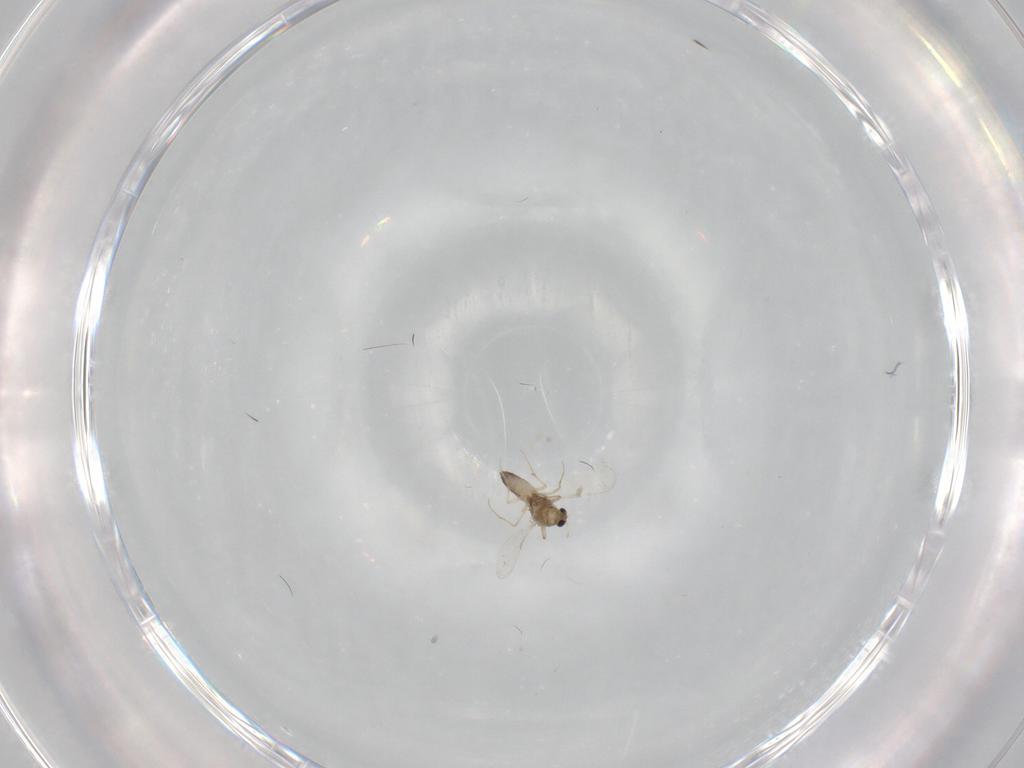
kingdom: Animalia
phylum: Arthropoda
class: Insecta
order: Diptera
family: Chironomidae
